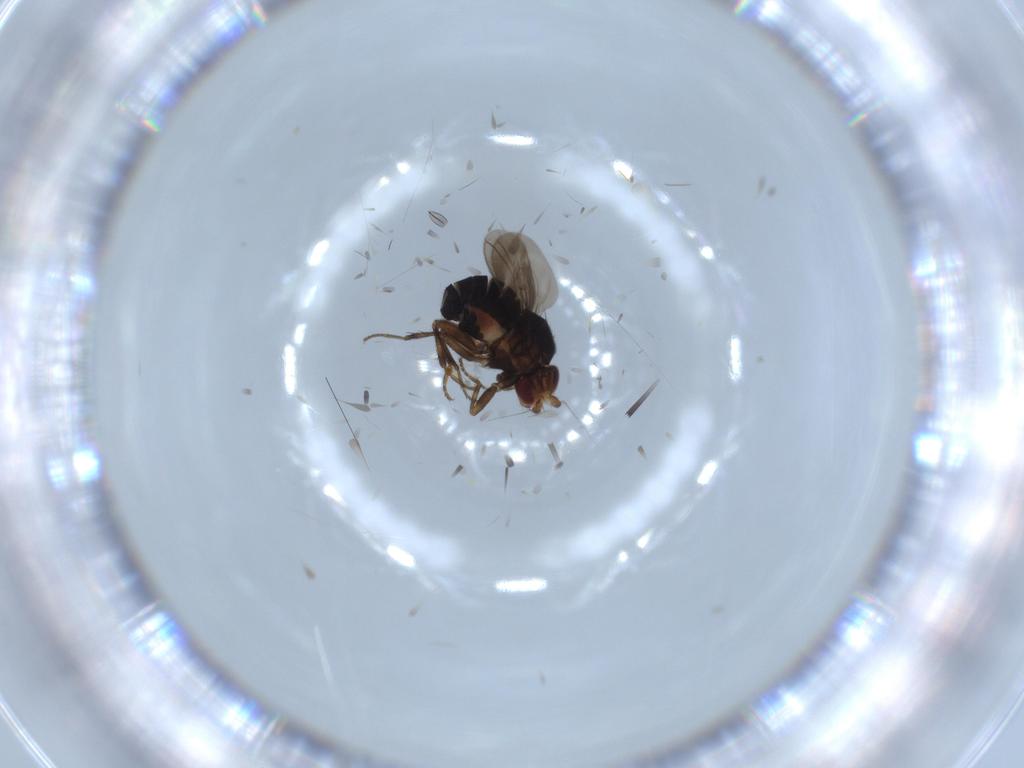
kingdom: Animalia
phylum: Arthropoda
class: Insecta
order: Diptera
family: Sphaeroceridae
